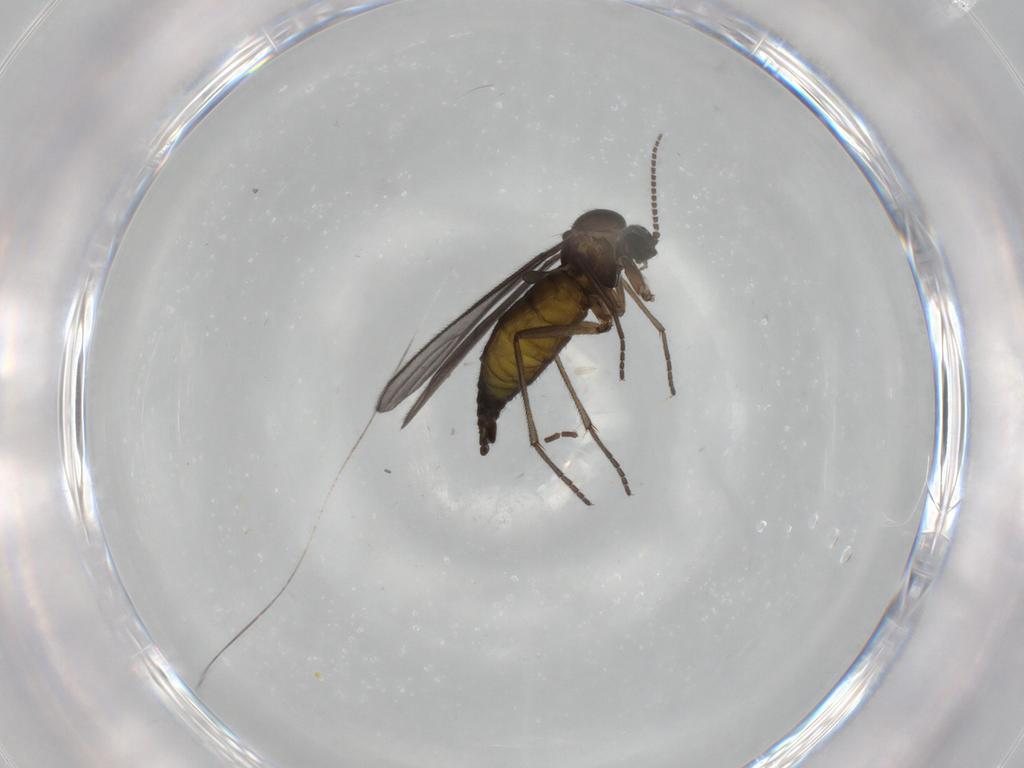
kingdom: Animalia
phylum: Arthropoda
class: Insecta
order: Diptera
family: Sciaridae
